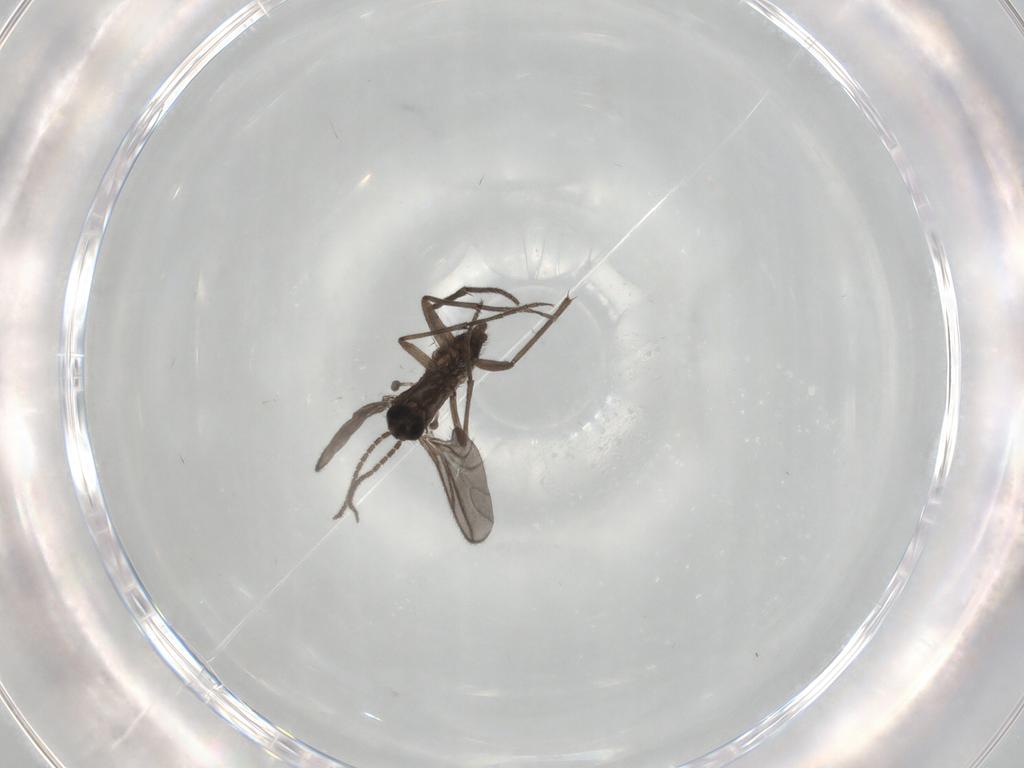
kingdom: Animalia
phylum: Arthropoda
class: Insecta
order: Diptera
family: Sciaridae
